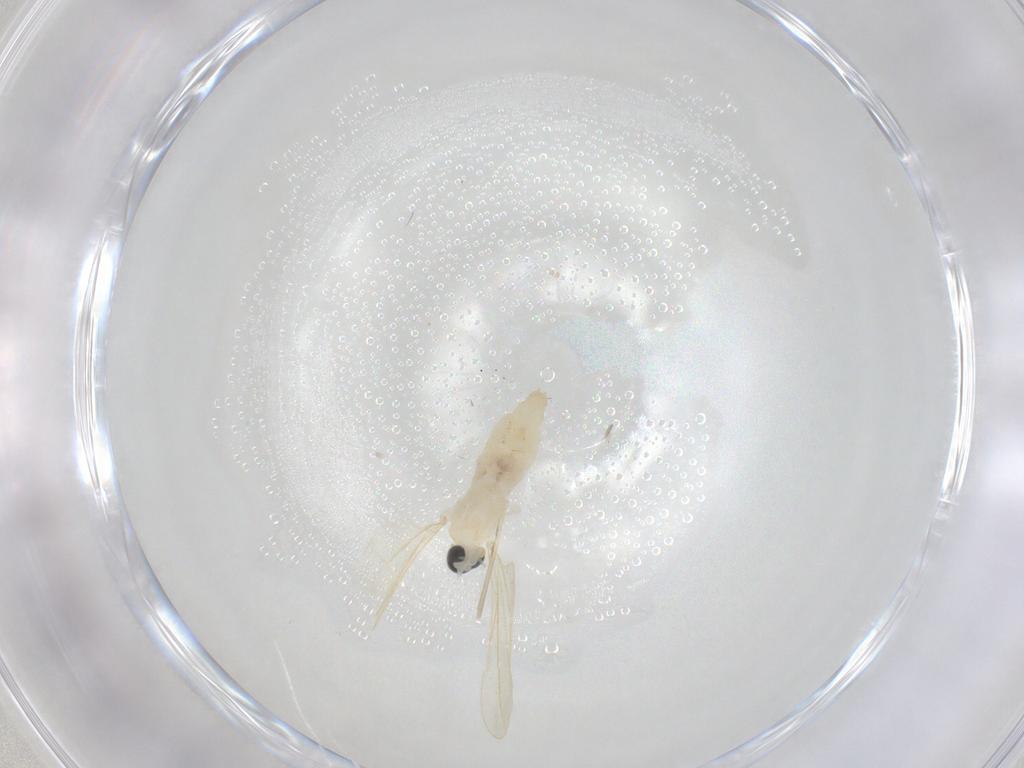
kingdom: Animalia
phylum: Arthropoda
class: Insecta
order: Diptera
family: Cecidomyiidae
